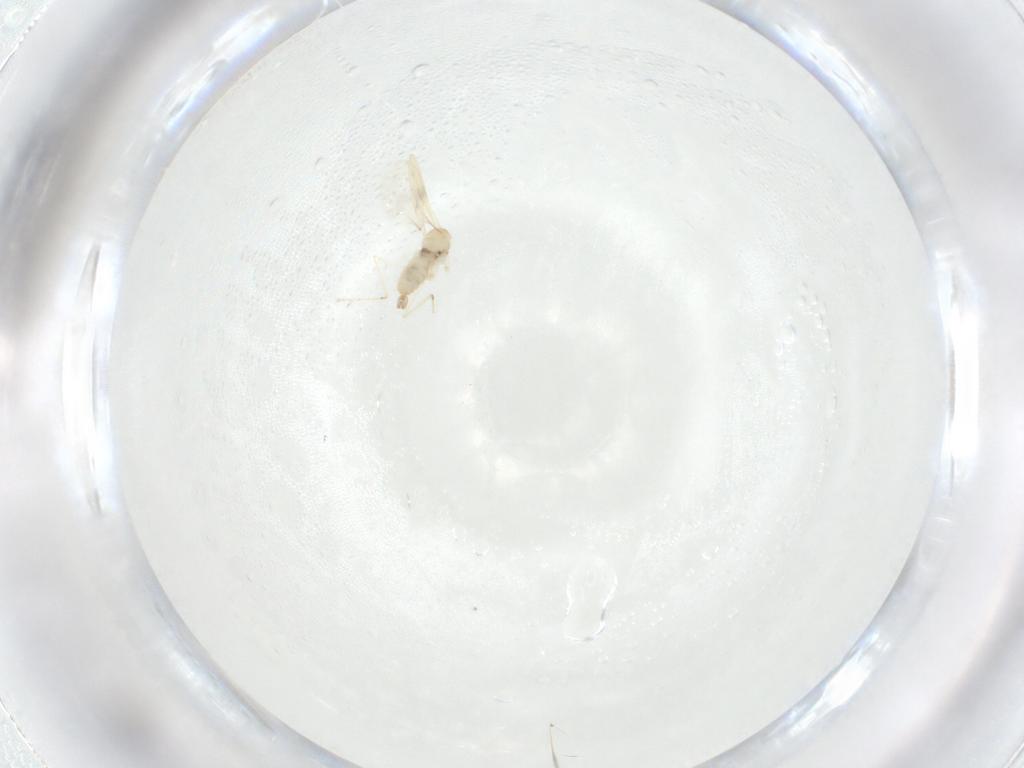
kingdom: Animalia
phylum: Arthropoda
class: Insecta
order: Diptera
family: Cecidomyiidae
